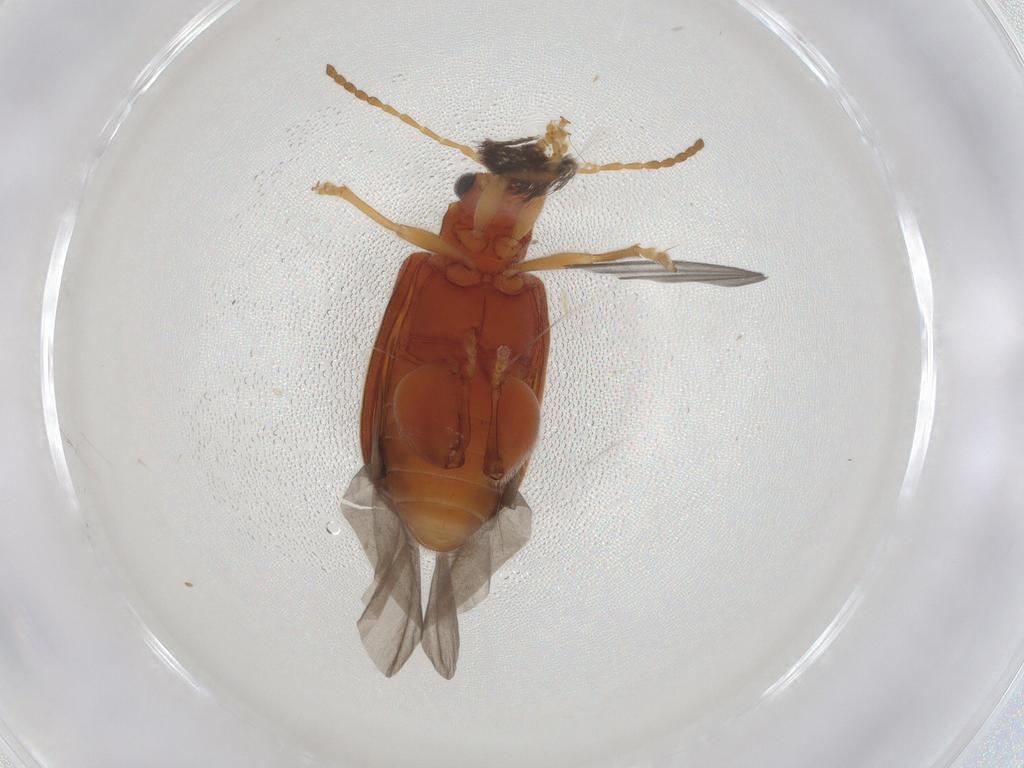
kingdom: Animalia
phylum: Arthropoda
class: Insecta
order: Coleoptera
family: Chrysomelidae
